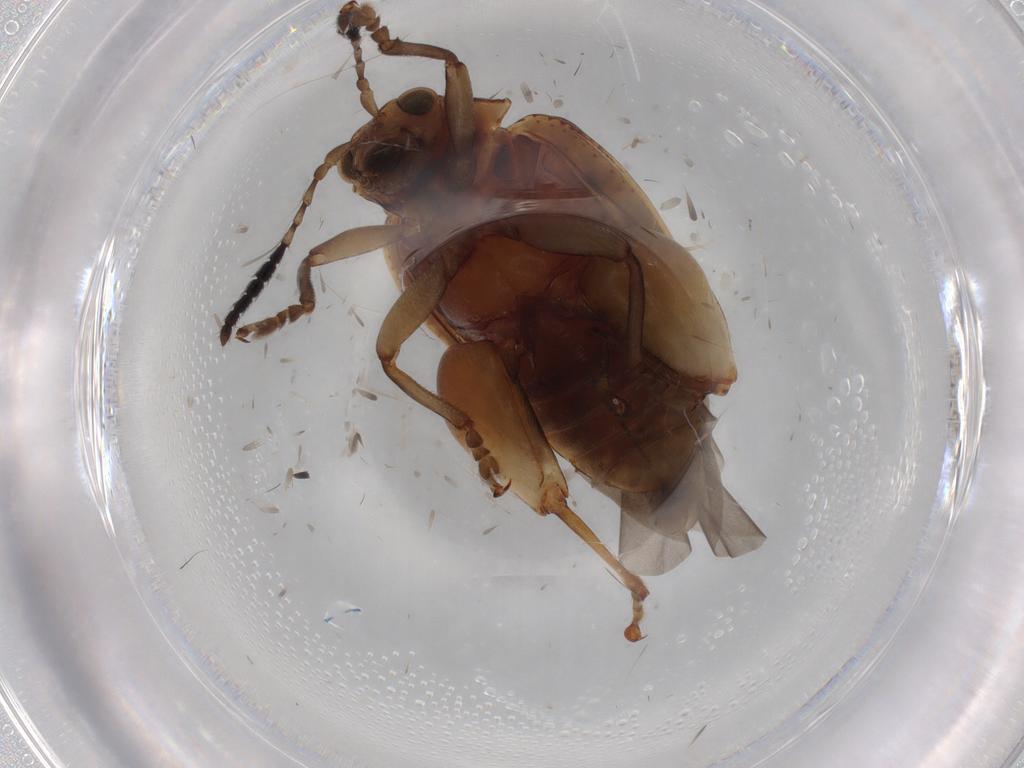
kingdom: Animalia
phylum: Arthropoda
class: Insecta
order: Coleoptera
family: Chrysomelidae
